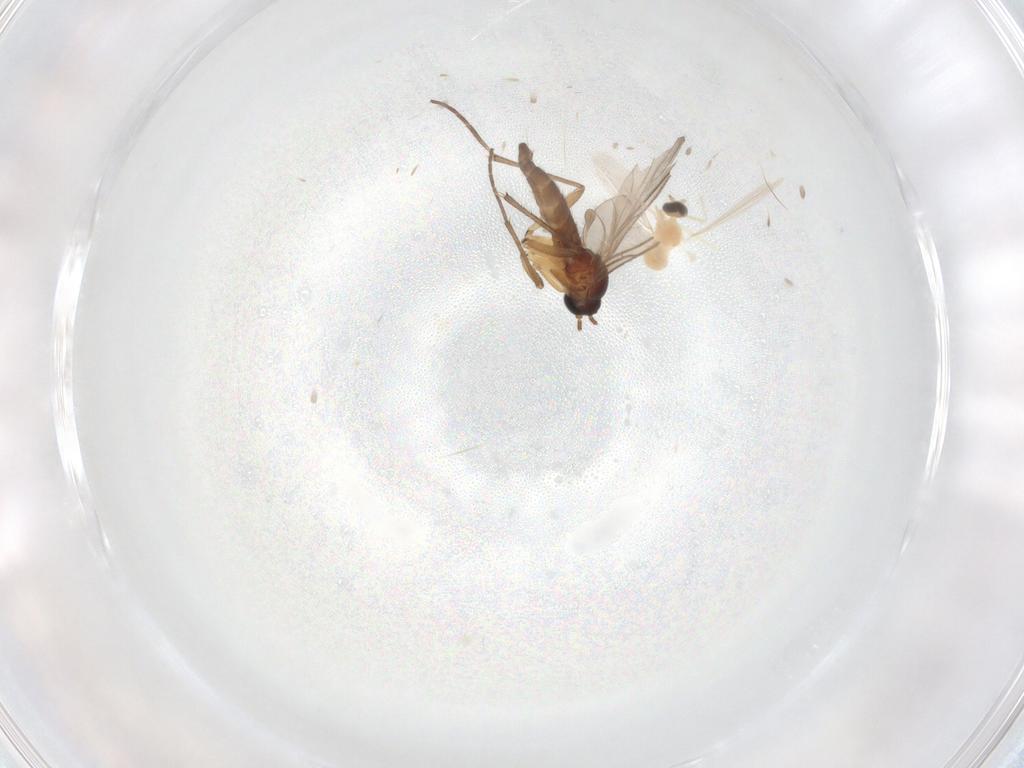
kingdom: Animalia
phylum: Arthropoda
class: Insecta
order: Diptera
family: Cecidomyiidae
